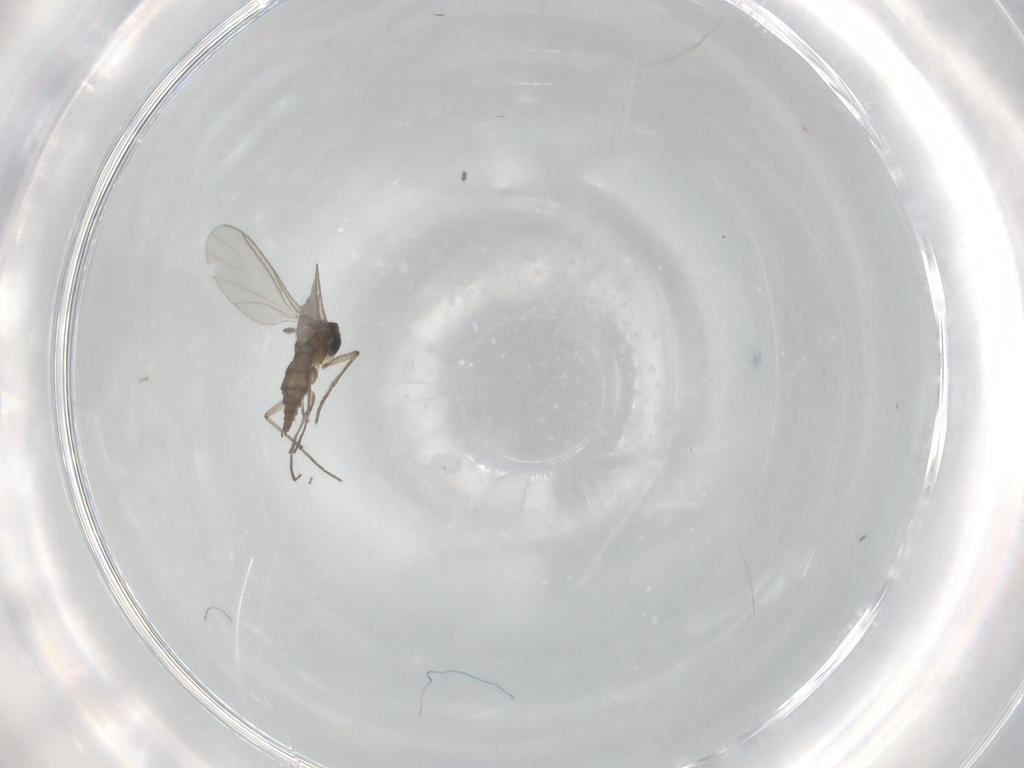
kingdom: Animalia
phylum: Arthropoda
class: Insecta
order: Diptera
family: Sciaridae
